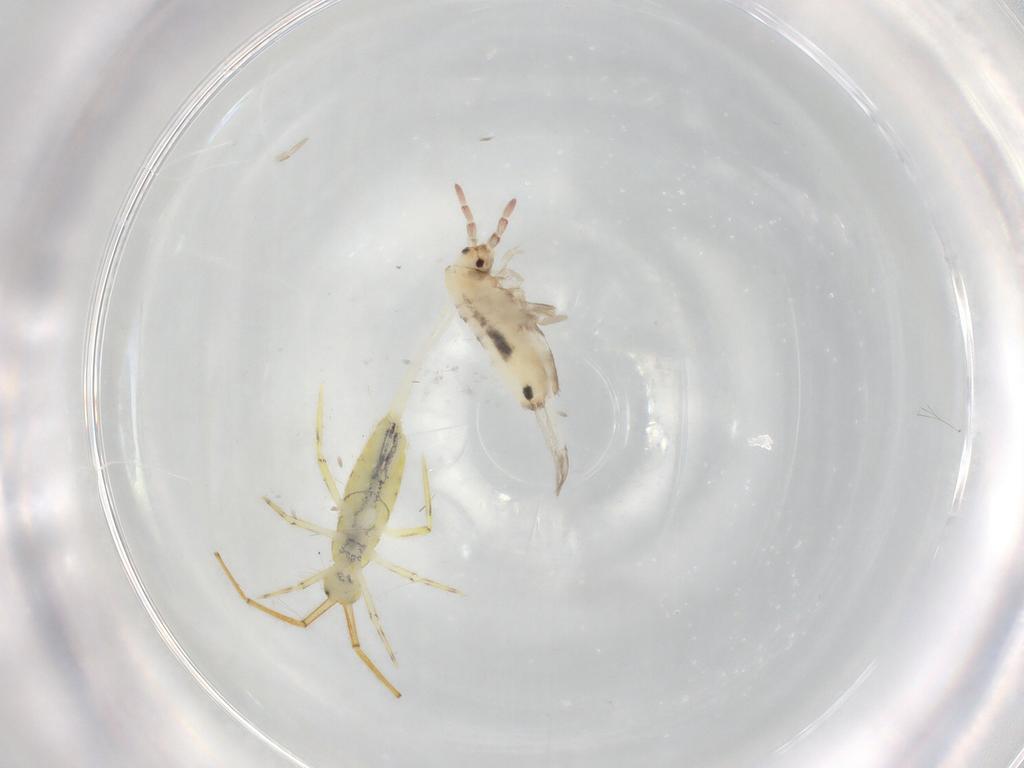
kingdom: Animalia
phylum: Arthropoda
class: Collembola
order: Entomobryomorpha
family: Entomobryidae
